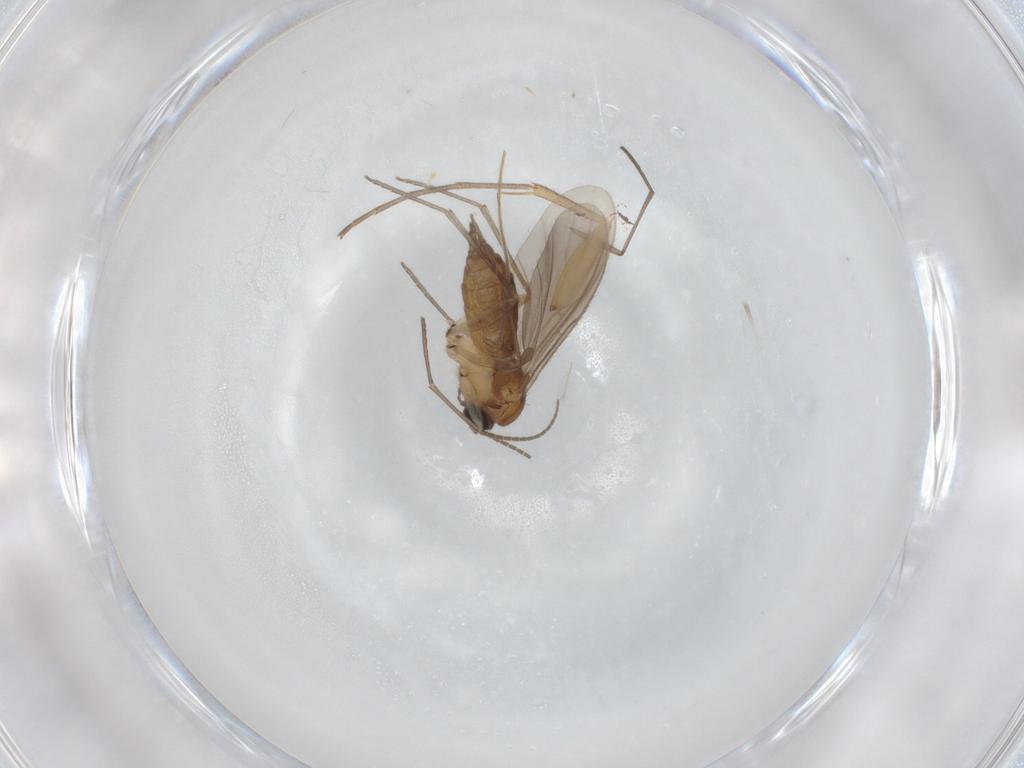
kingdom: Animalia
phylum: Arthropoda
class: Insecta
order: Diptera
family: Sciaridae
